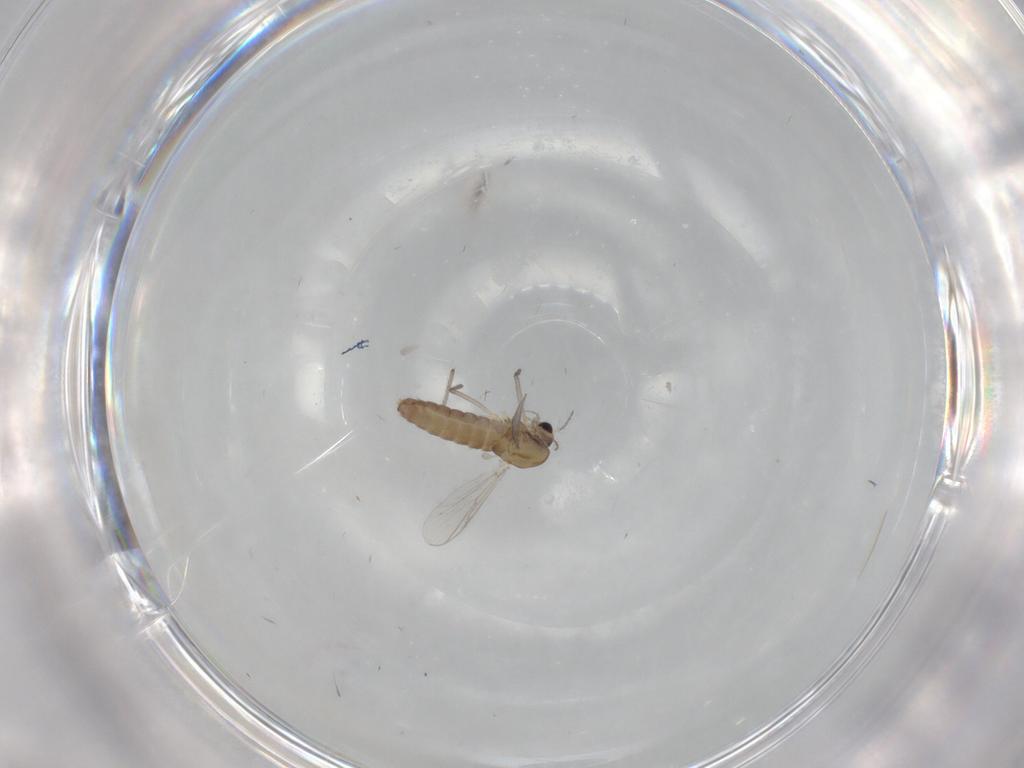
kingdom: Animalia
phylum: Arthropoda
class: Insecta
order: Diptera
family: Chironomidae
